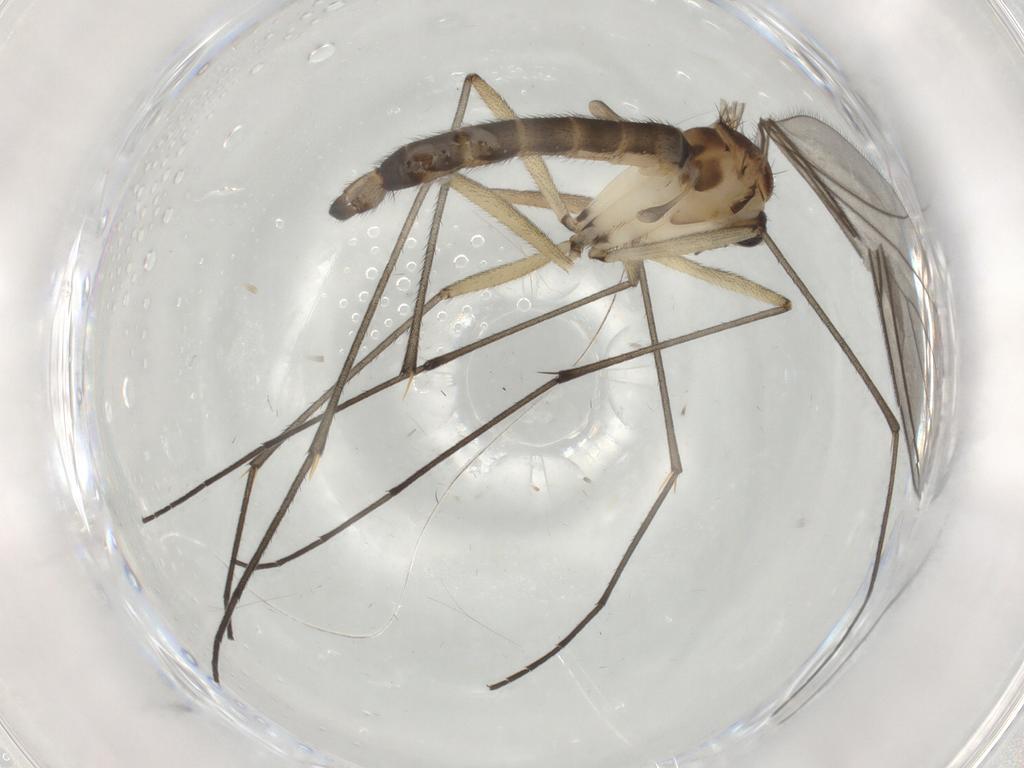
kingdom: Animalia
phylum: Arthropoda
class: Insecta
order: Diptera
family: Sciaridae
